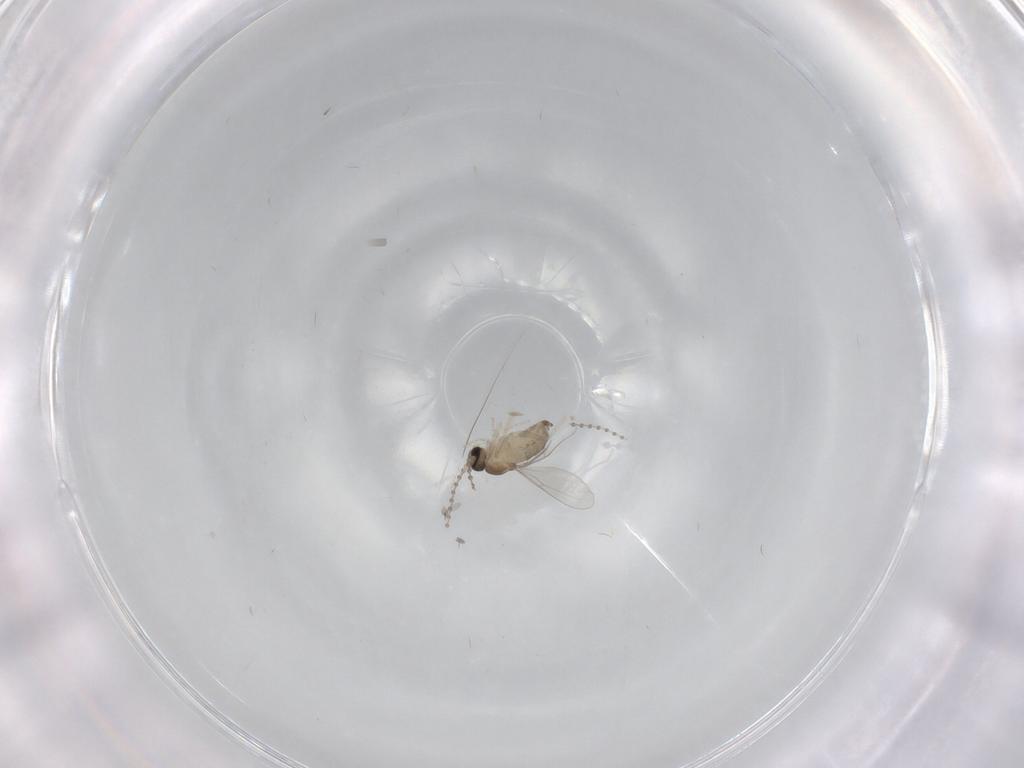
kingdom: Animalia
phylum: Arthropoda
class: Insecta
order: Diptera
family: Cecidomyiidae
